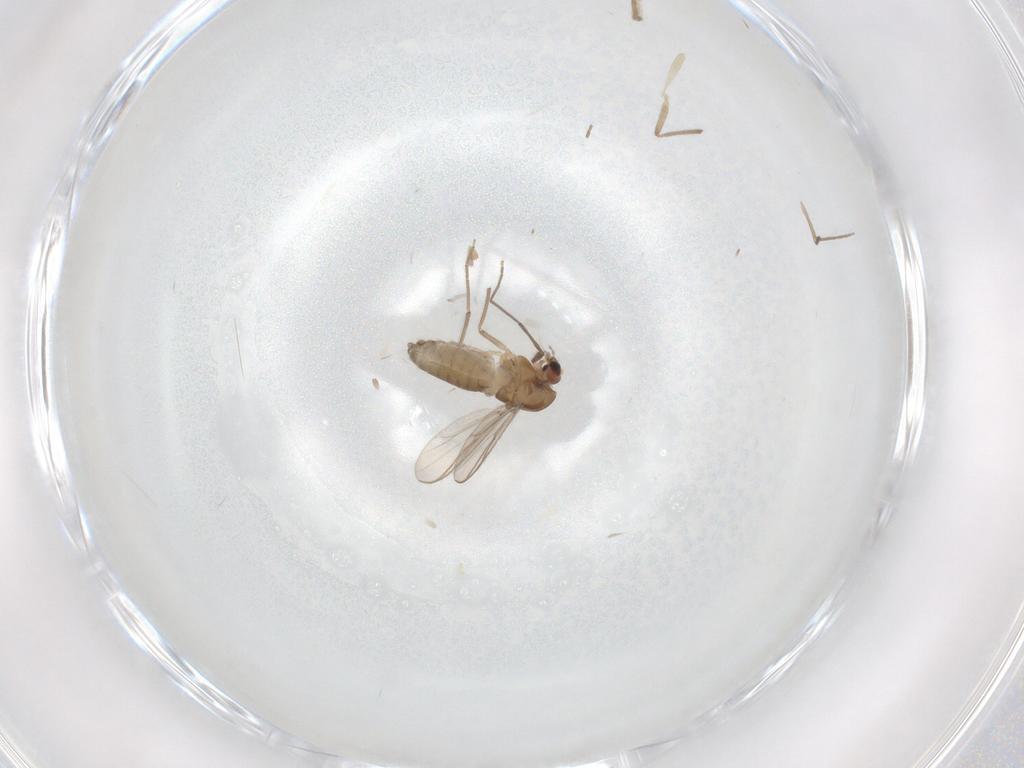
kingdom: Animalia
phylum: Arthropoda
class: Insecta
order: Diptera
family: Chironomidae
